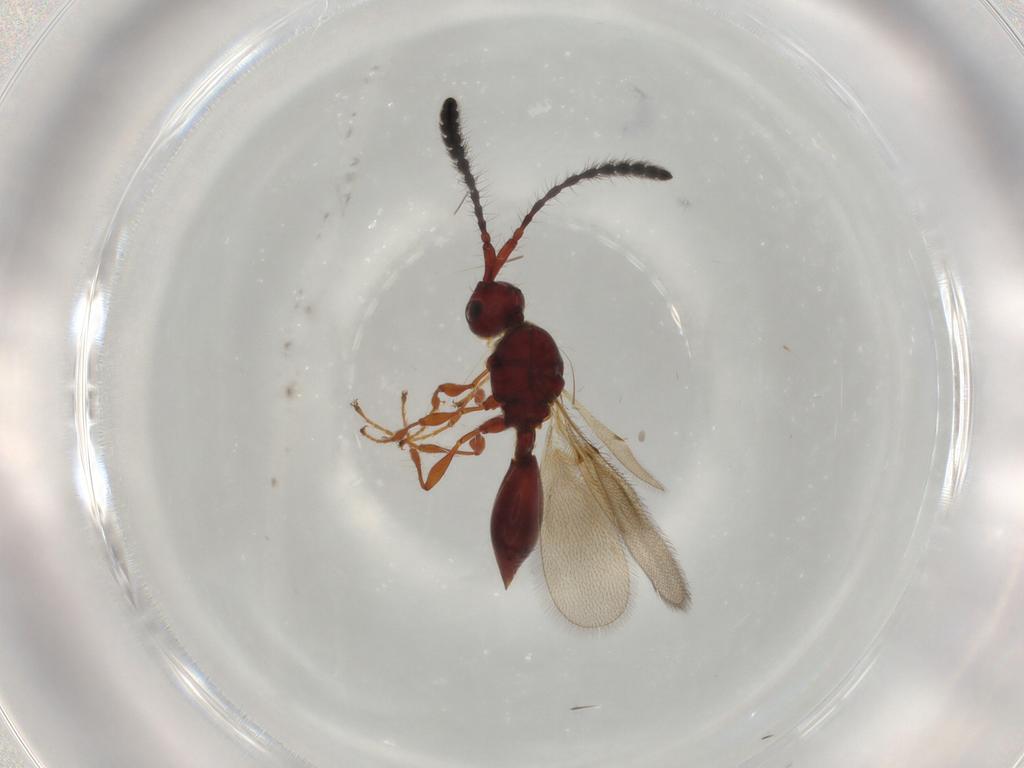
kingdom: Animalia
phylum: Arthropoda
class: Insecta
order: Hymenoptera
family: Diapriidae
